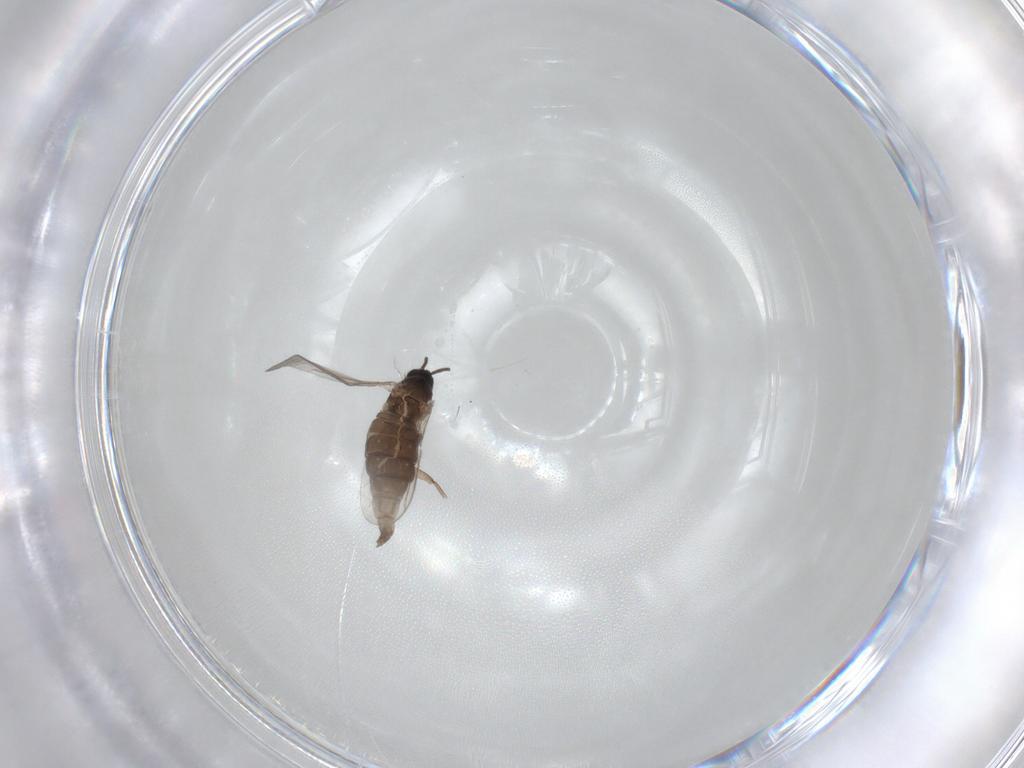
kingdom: Animalia
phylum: Arthropoda
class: Insecta
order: Diptera
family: Sciaridae
